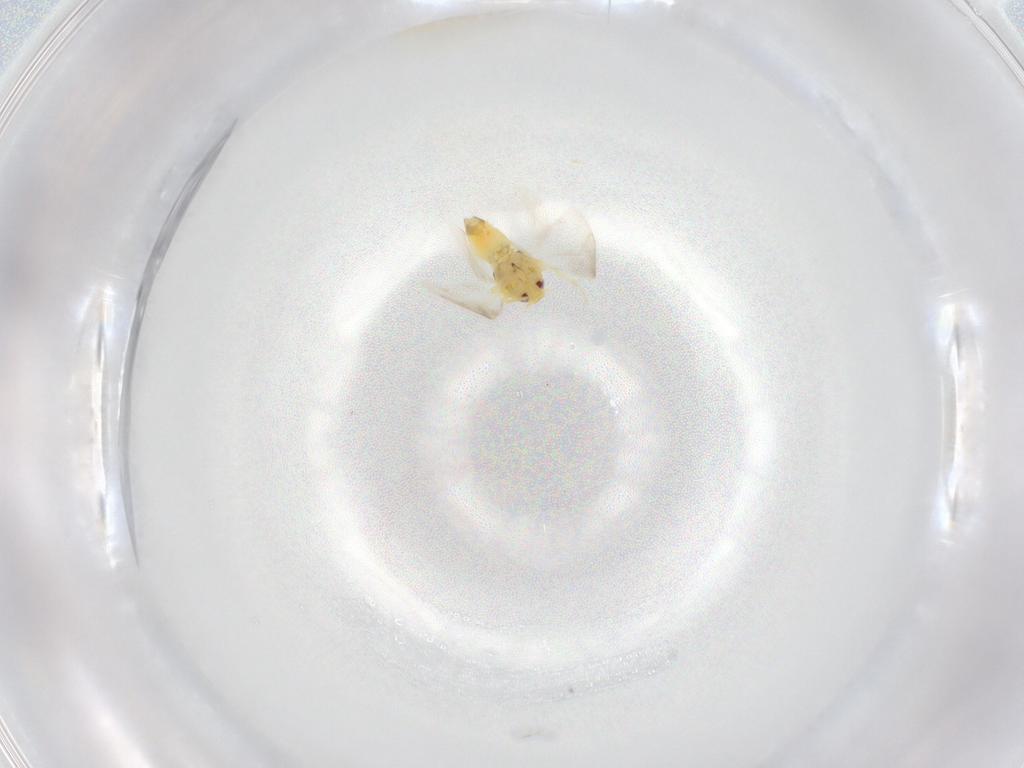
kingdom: Animalia
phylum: Arthropoda
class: Insecta
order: Hemiptera
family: Aleyrodidae
